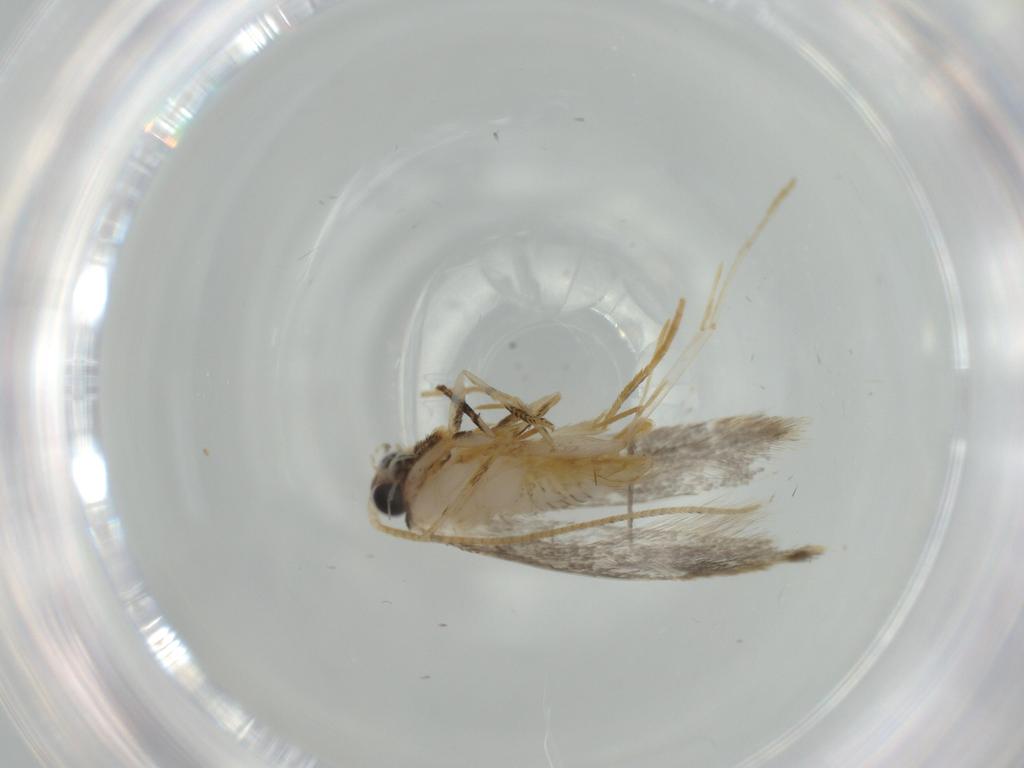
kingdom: Animalia
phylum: Arthropoda
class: Insecta
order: Lepidoptera
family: Tineidae
